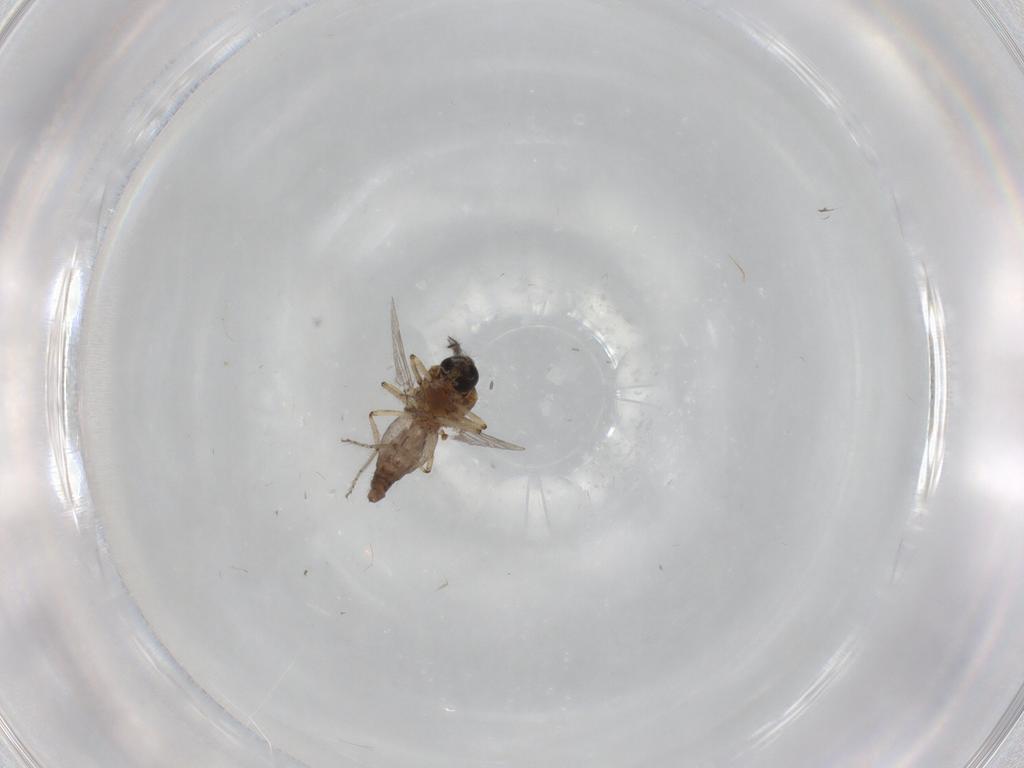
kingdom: Animalia
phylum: Arthropoda
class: Insecta
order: Diptera
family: Ceratopogonidae
